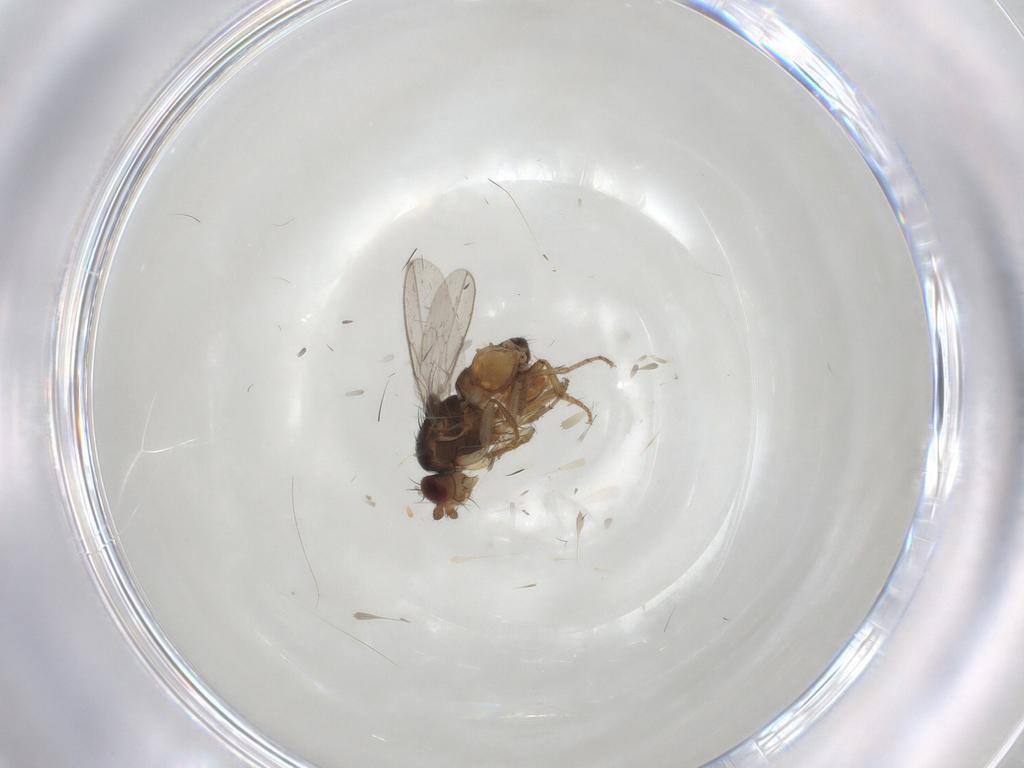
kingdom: Animalia
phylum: Arthropoda
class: Insecta
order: Diptera
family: Sphaeroceridae
